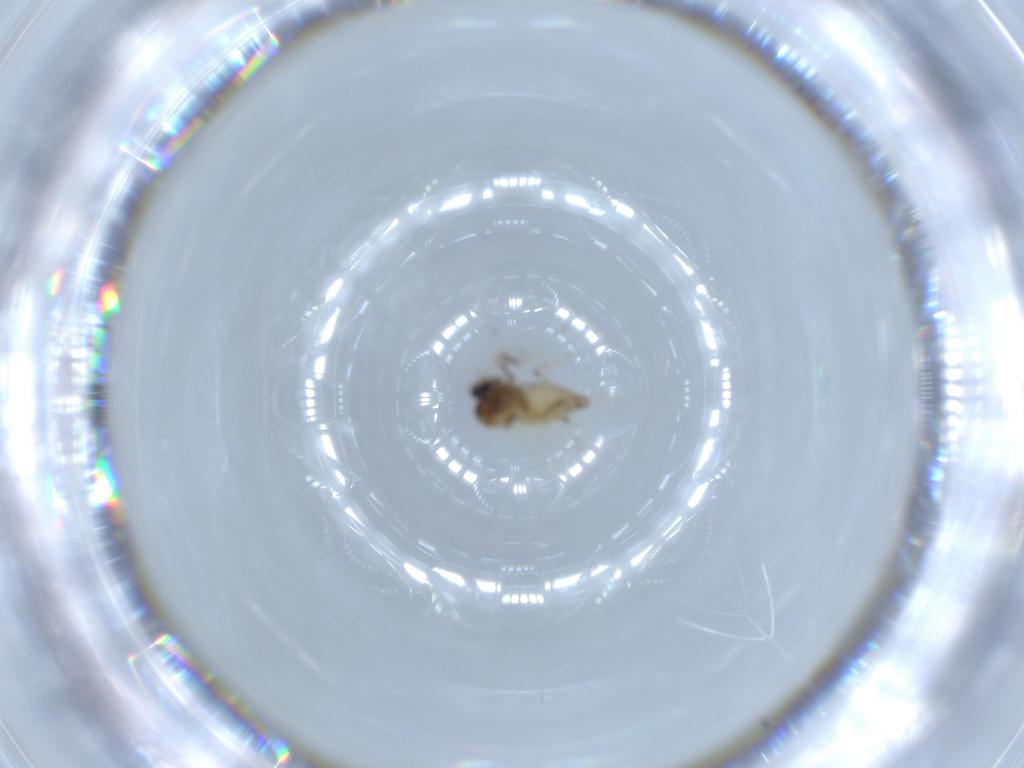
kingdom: Animalia
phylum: Arthropoda
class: Insecta
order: Diptera
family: Ceratopogonidae
